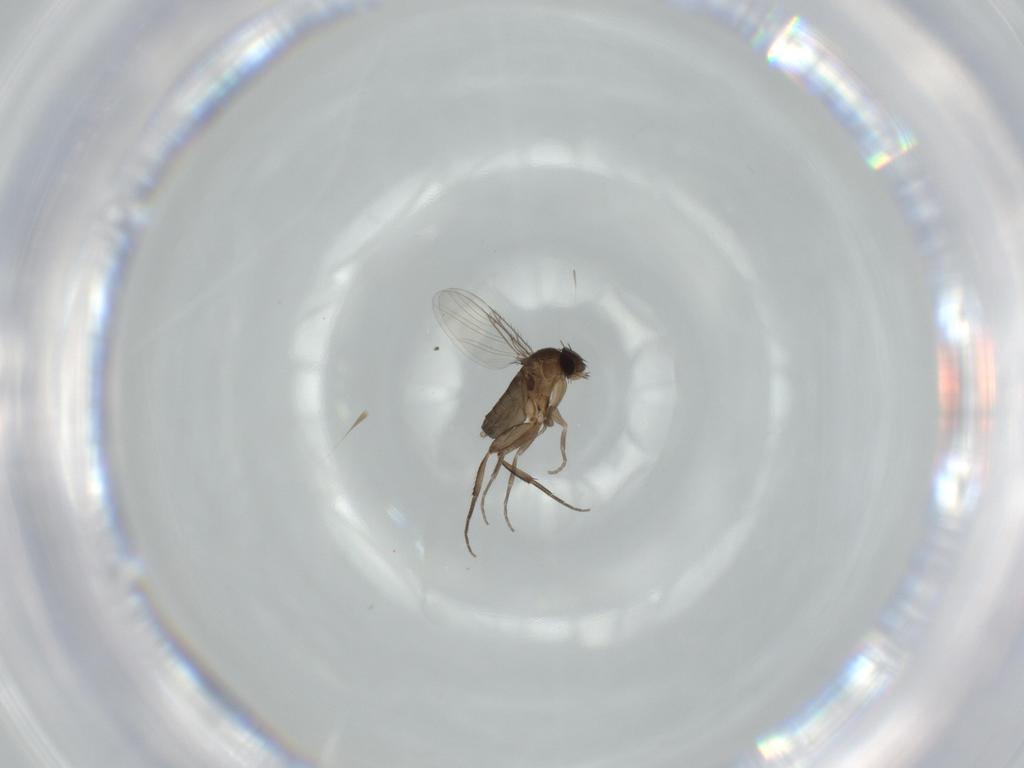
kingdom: Animalia
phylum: Arthropoda
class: Insecta
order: Diptera
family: Phoridae
